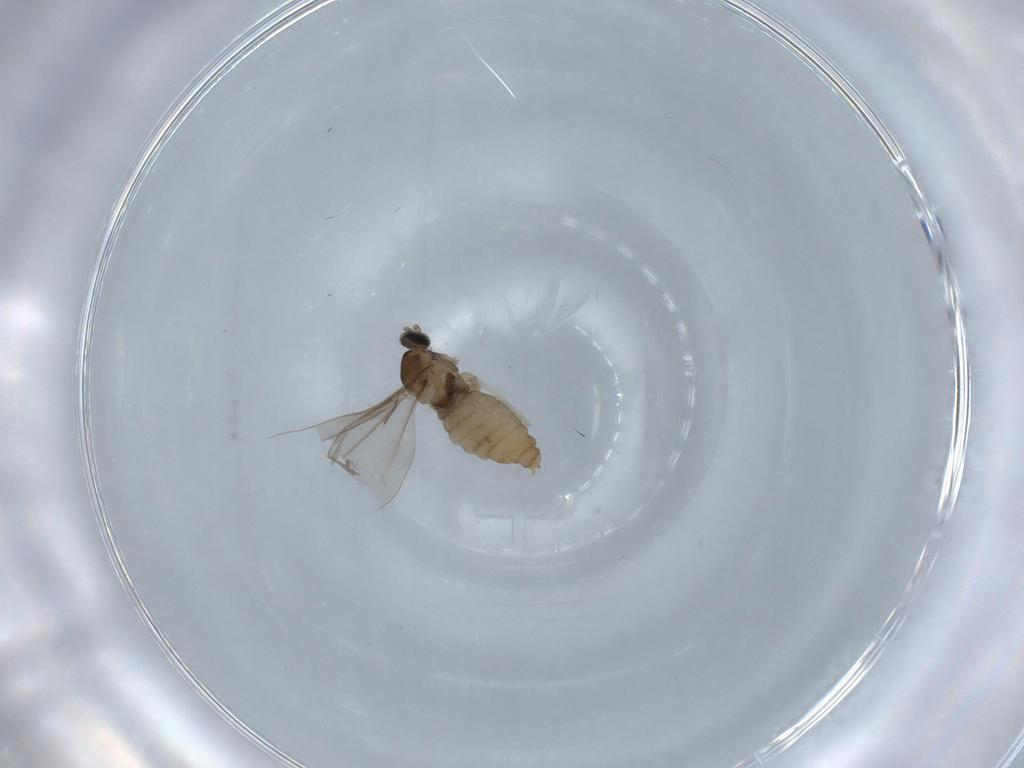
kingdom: Animalia
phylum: Arthropoda
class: Insecta
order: Diptera
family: Cecidomyiidae
